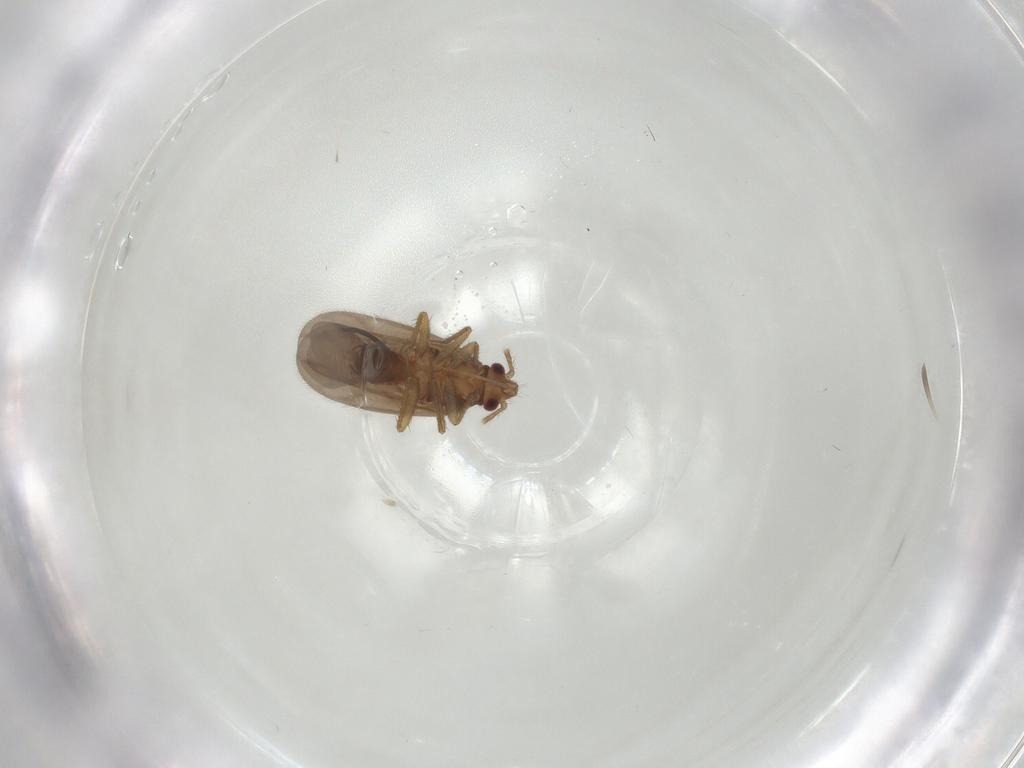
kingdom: Animalia
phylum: Arthropoda
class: Insecta
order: Hemiptera
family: Ceratocombidae
